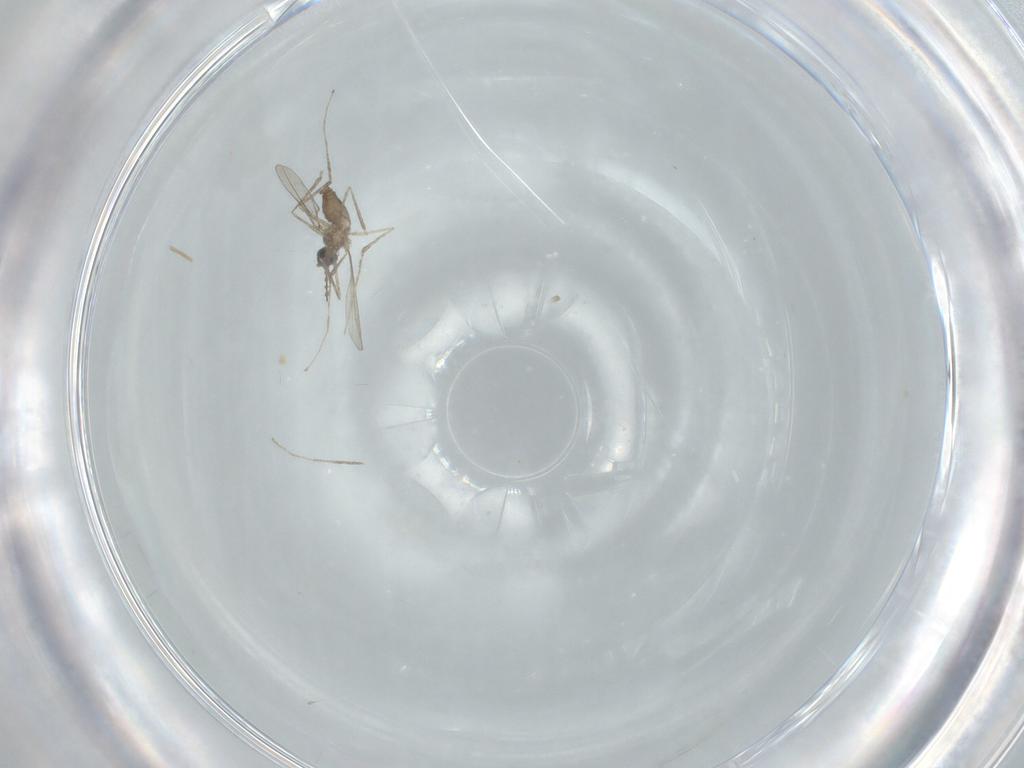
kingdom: Animalia
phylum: Arthropoda
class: Insecta
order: Diptera
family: Cecidomyiidae
